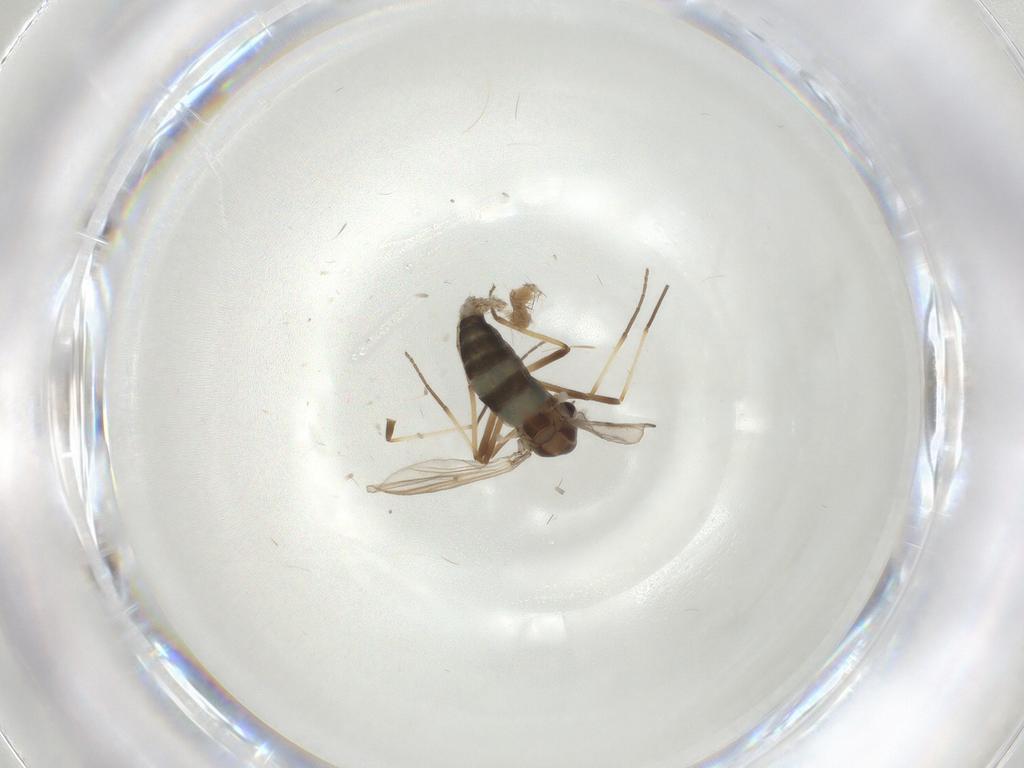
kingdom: Animalia
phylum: Arthropoda
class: Insecta
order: Diptera
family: Chironomidae
